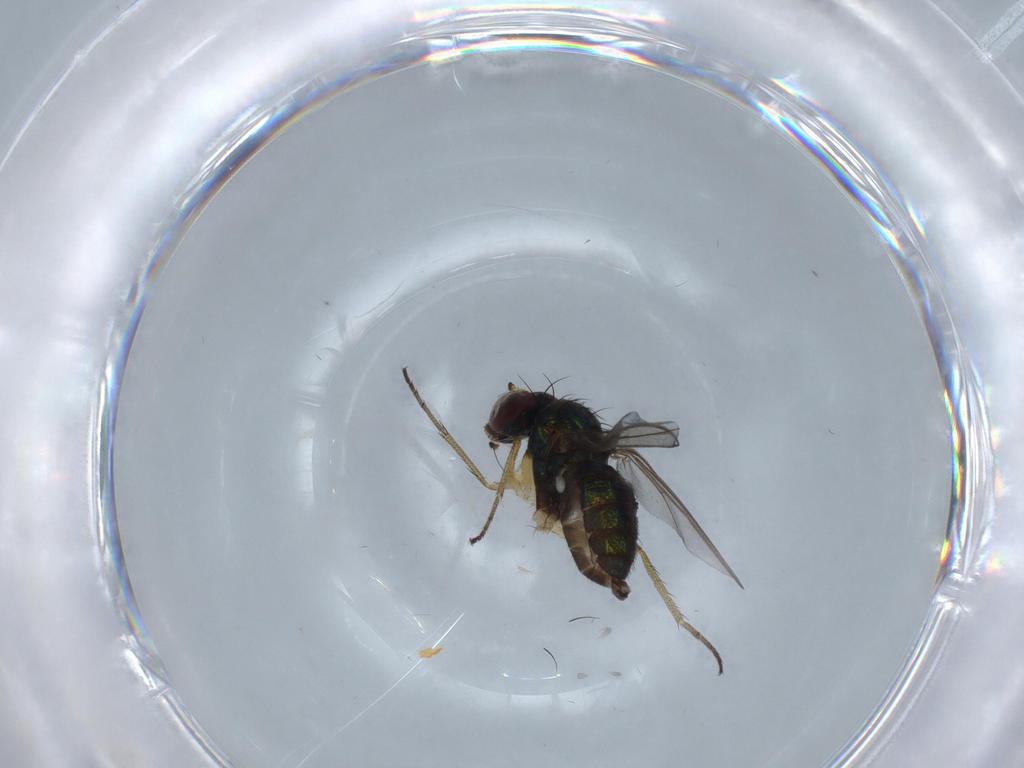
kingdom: Animalia
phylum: Arthropoda
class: Insecta
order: Diptera
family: Dolichopodidae
